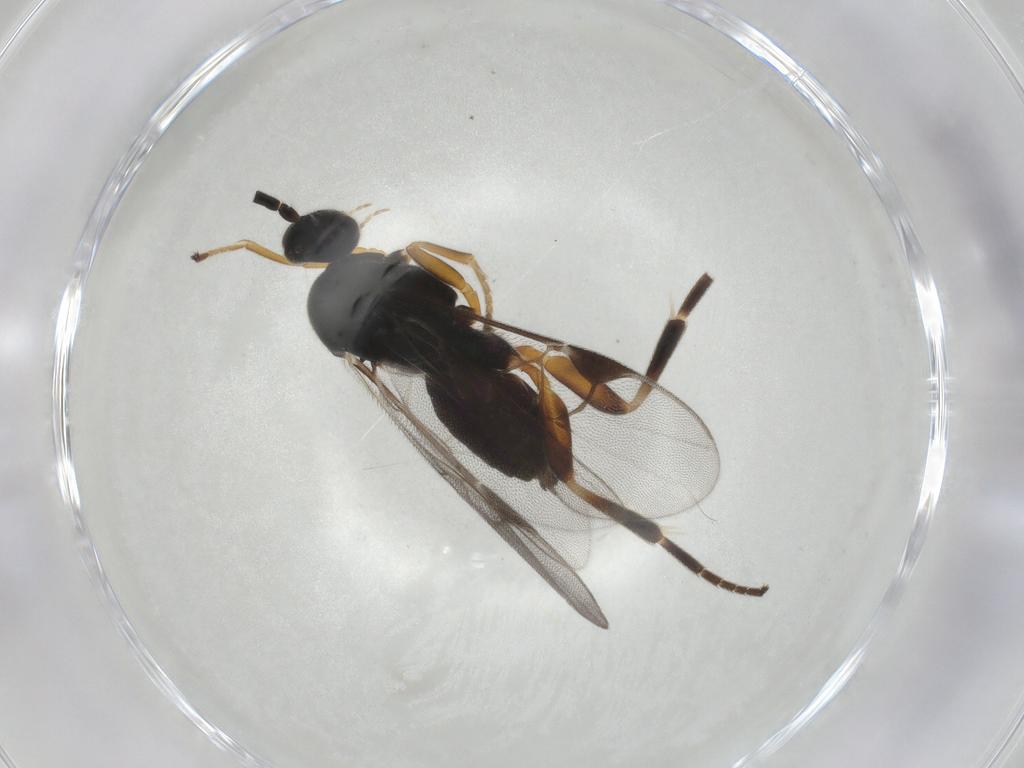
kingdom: Animalia
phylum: Arthropoda
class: Insecta
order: Hymenoptera
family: Braconidae
